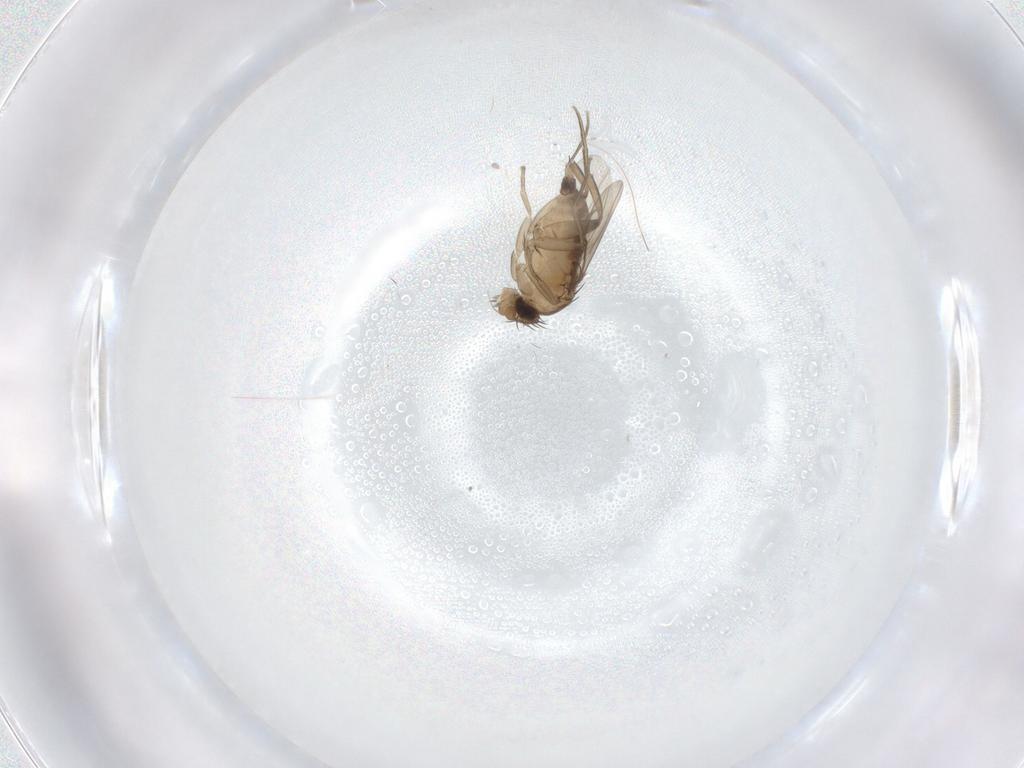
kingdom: Animalia
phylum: Arthropoda
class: Insecta
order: Diptera
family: Phoridae
